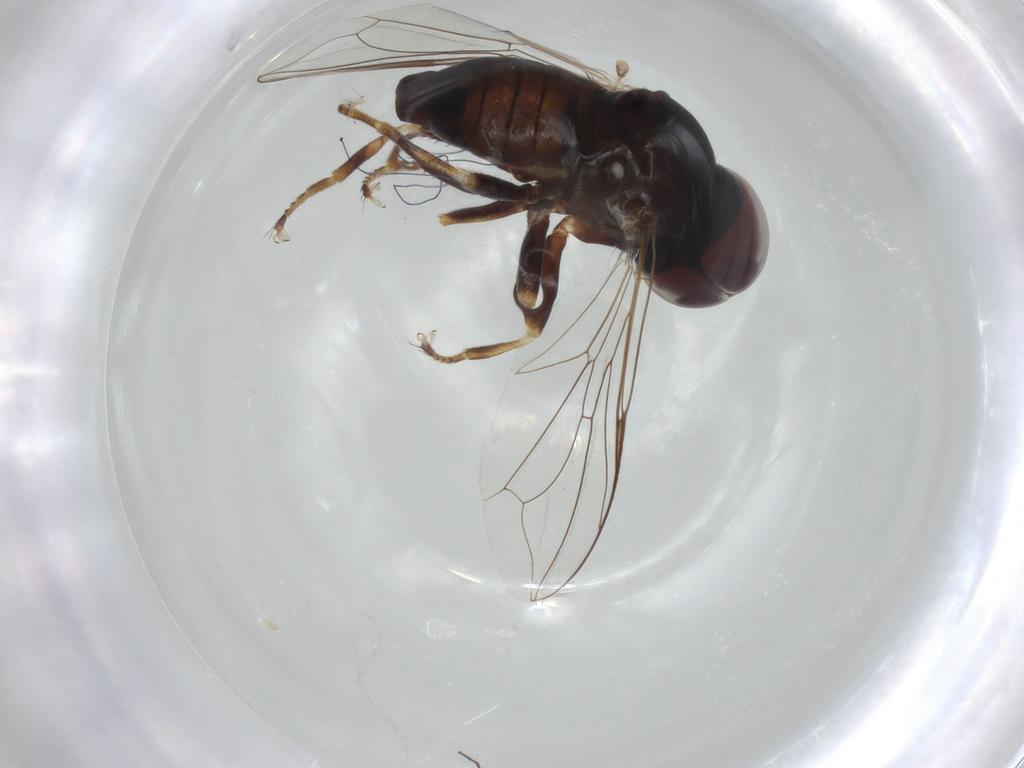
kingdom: Animalia
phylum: Arthropoda
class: Insecta
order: Diptera
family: Pipunculidae
